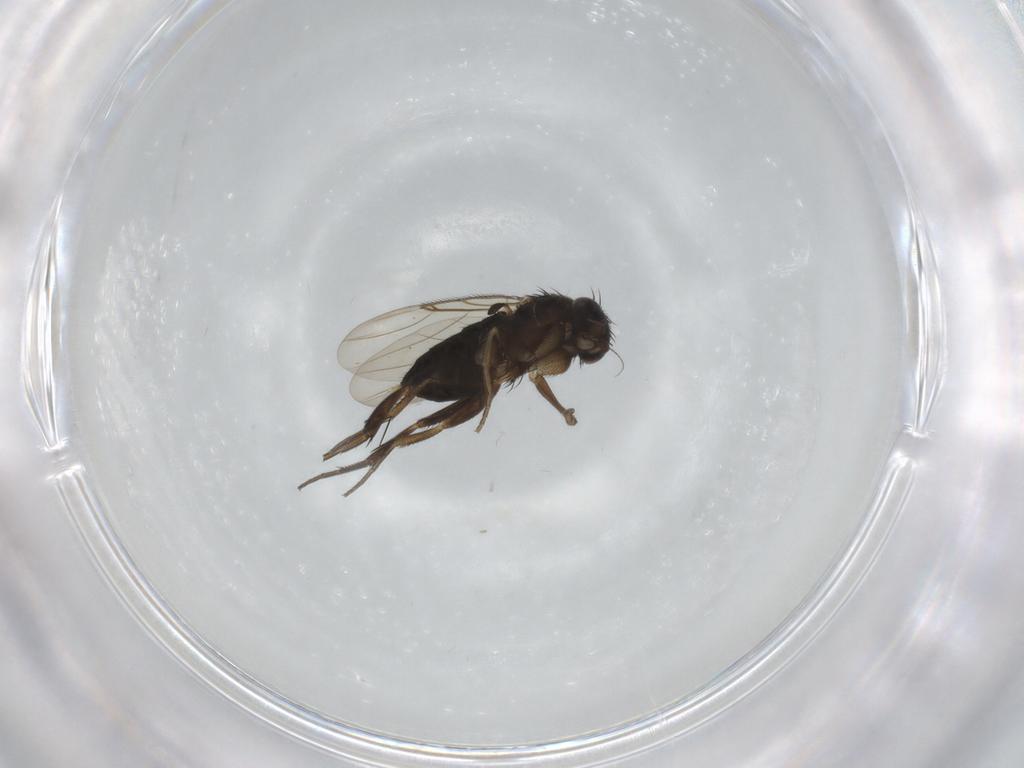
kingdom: Animalia
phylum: Arthropoda
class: Insecta
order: Diptera
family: Phoridae
